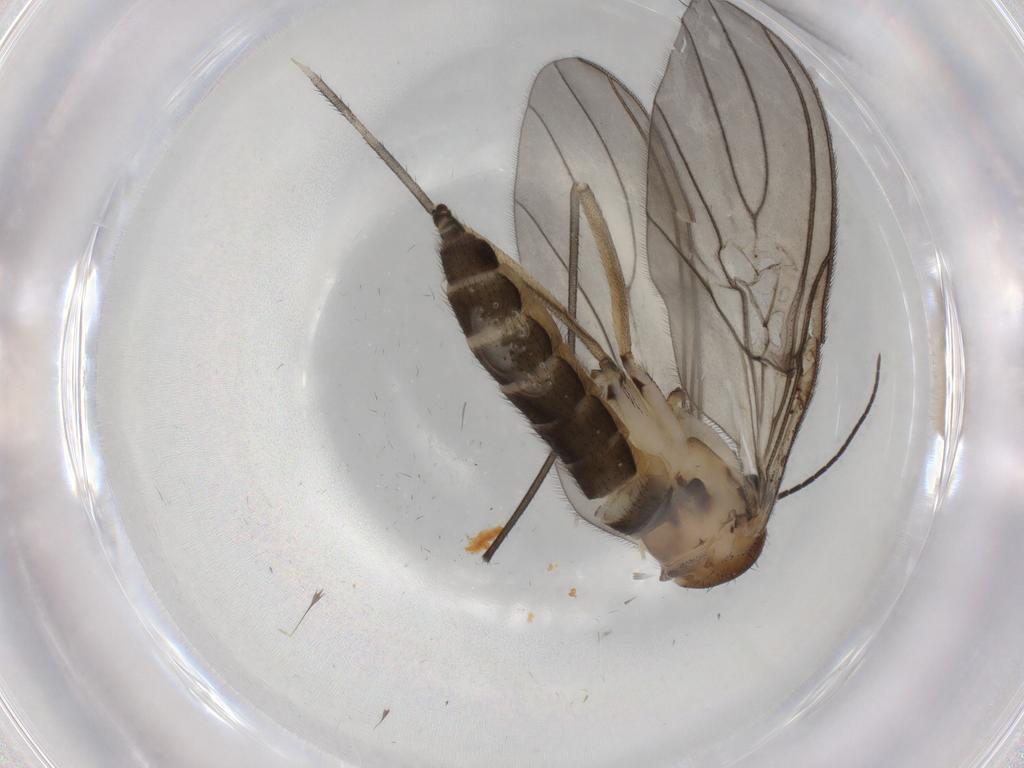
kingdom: Animalia
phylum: Arthropoda
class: Insecta
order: Diptera
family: Sciaridae
